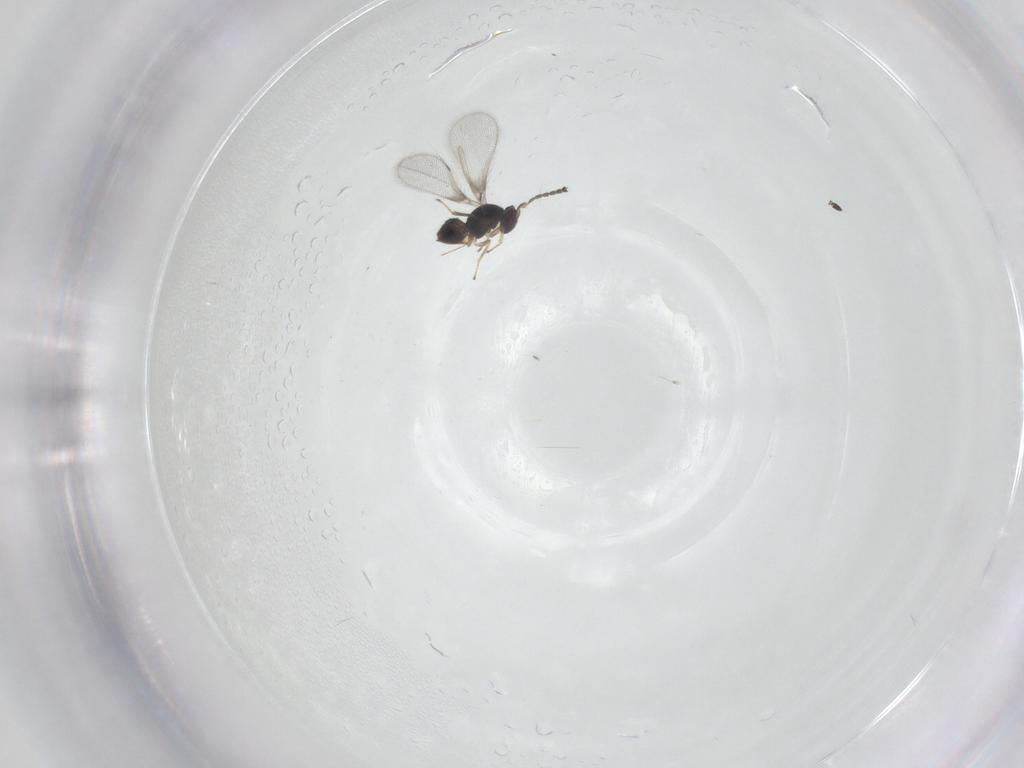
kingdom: Animalia
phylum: Arthropoda
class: Insecta
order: Hymenoptera
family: Mymaridae
